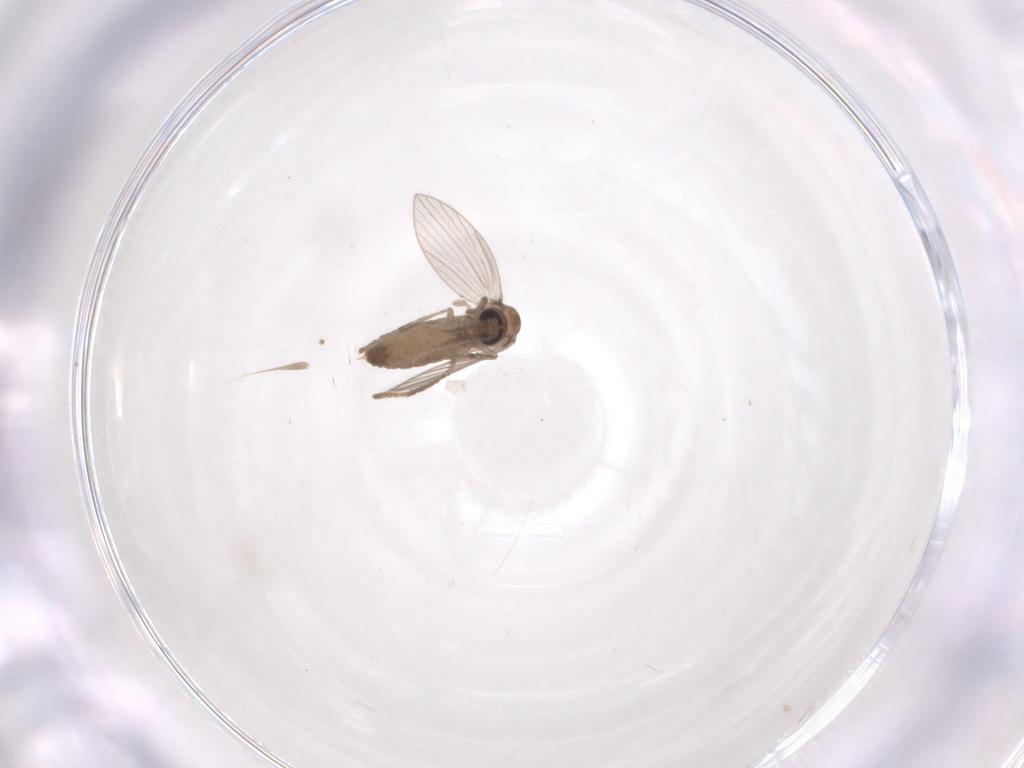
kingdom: Animalia
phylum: Arthropoda
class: Insecta
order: Diptera
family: Psychodidae
